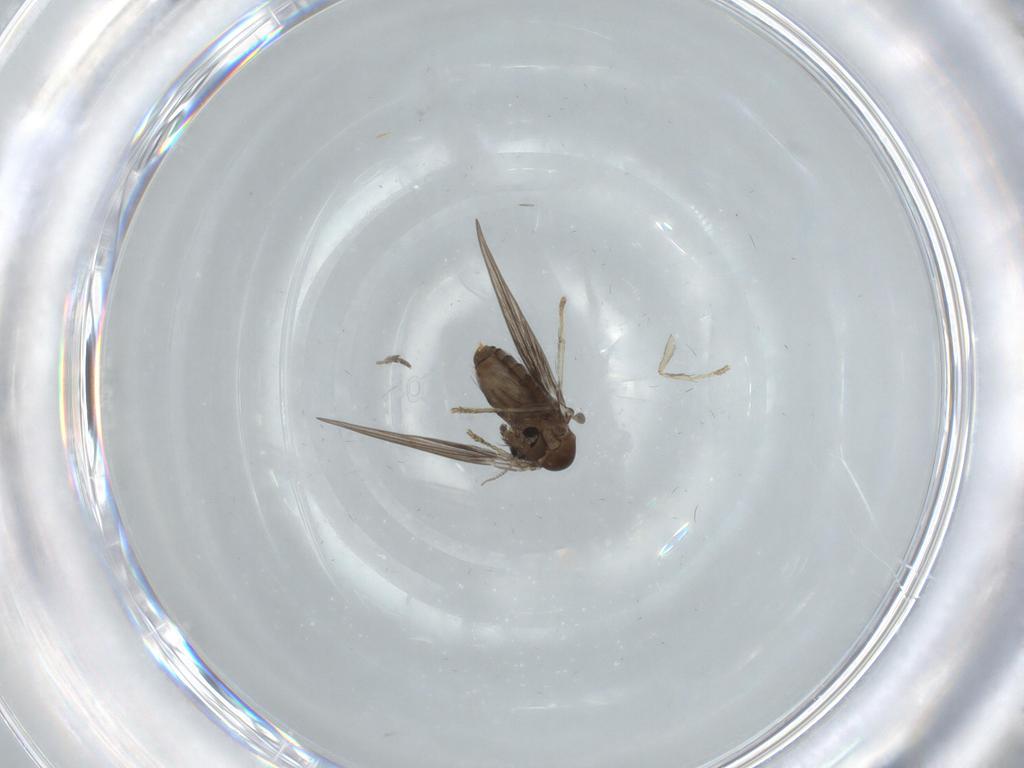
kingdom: Animalia
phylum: Arthropoda
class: Insecta
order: Diptera
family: Psychodidae
